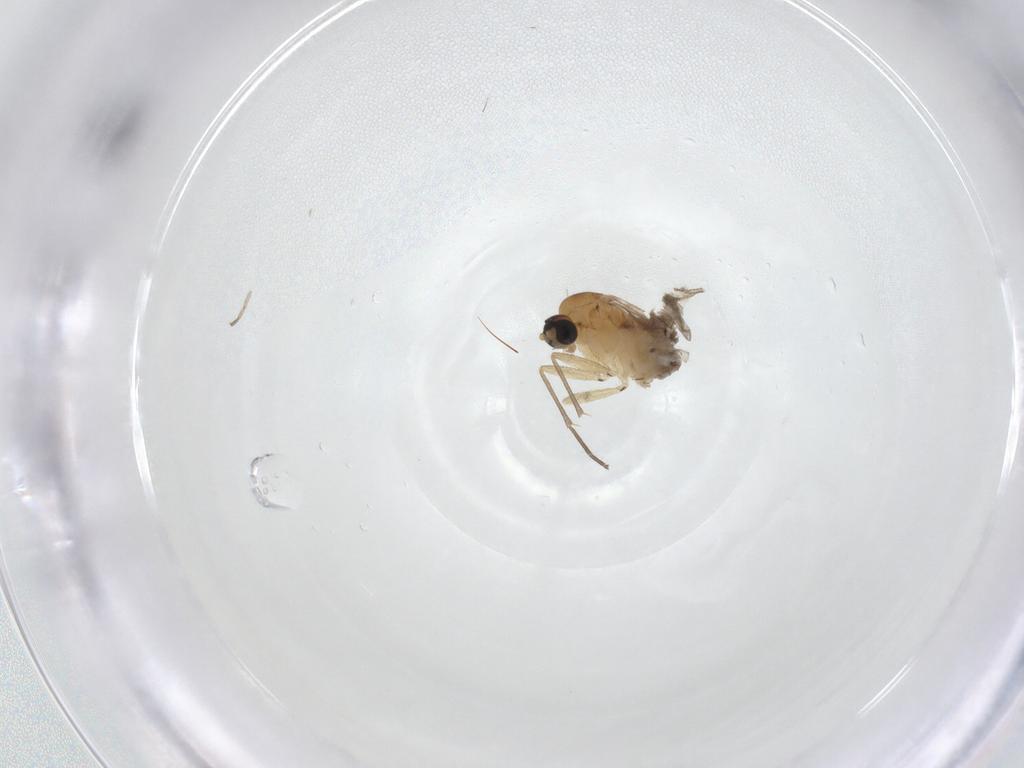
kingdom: Animalia
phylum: Arthropoda
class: Insecta
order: Diptera
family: Sciaridae
